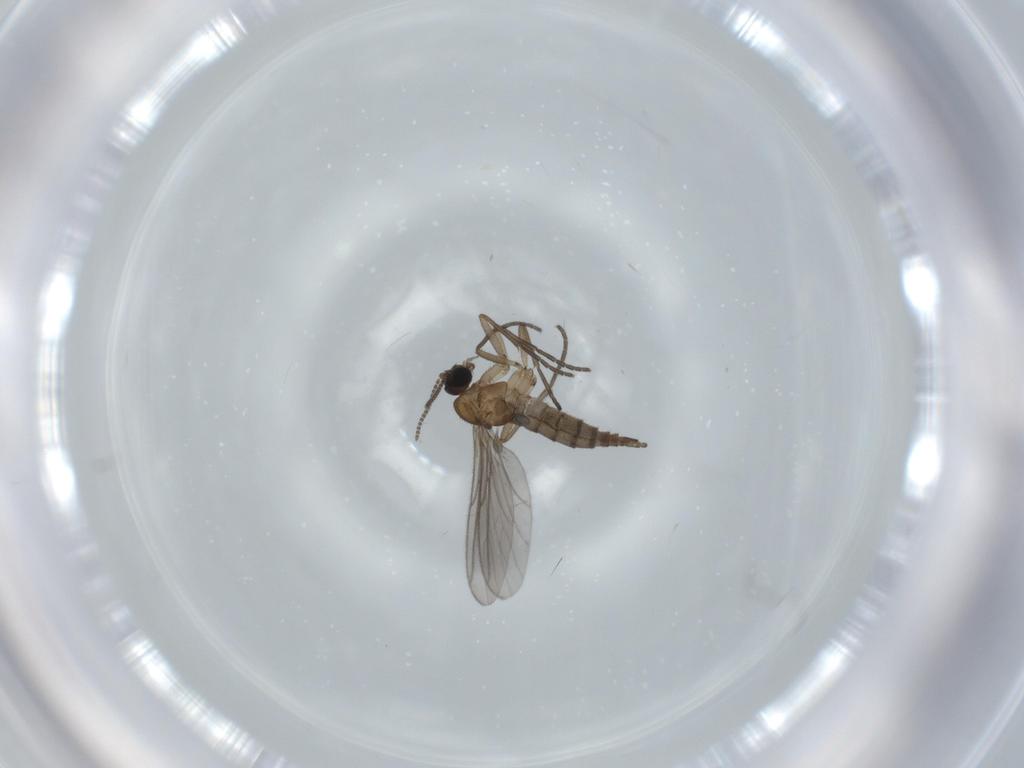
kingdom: Animalia
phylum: Arthropoda
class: Insecta
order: Diptera
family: Sciaridae
